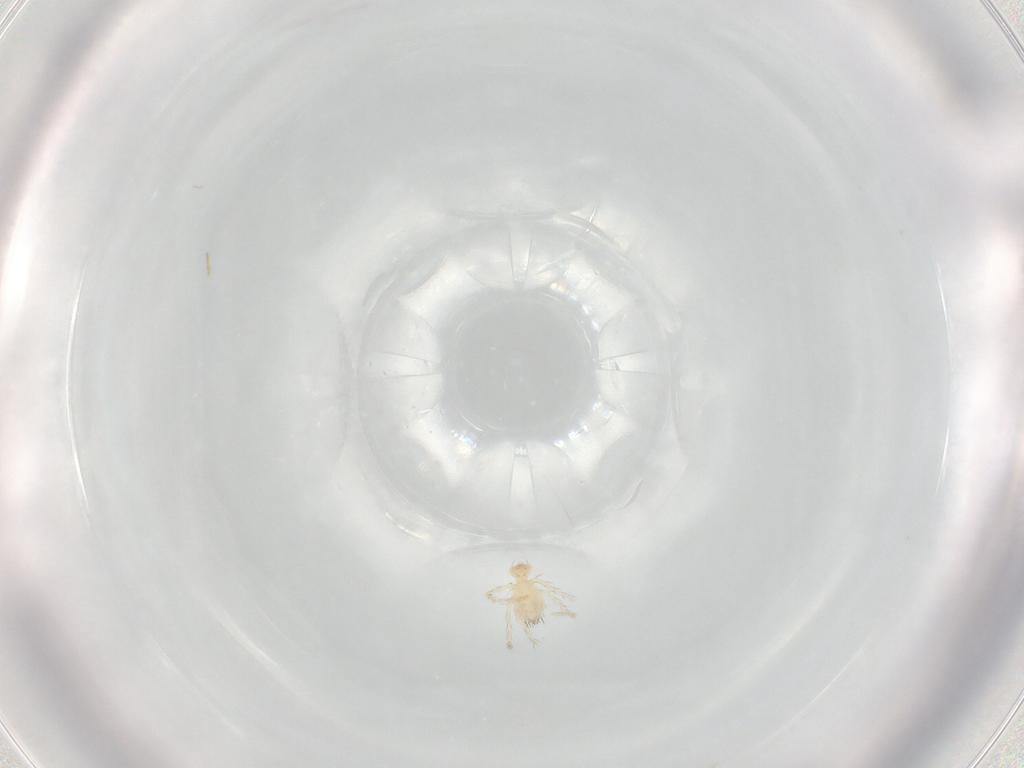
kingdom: Animalia
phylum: Arthropoda
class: Arachnida
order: Trombidiformes
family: Erythraeidae
